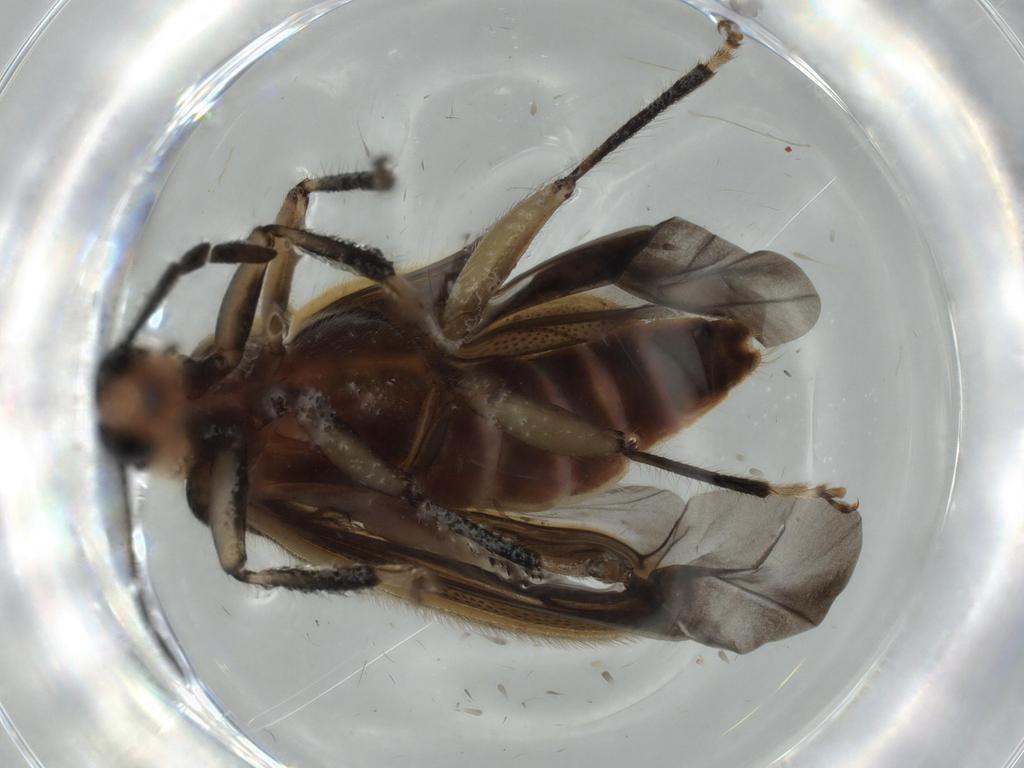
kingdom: Animalia
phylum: Arthropoda
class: Insecta
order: Coleoptera
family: Cleridae
